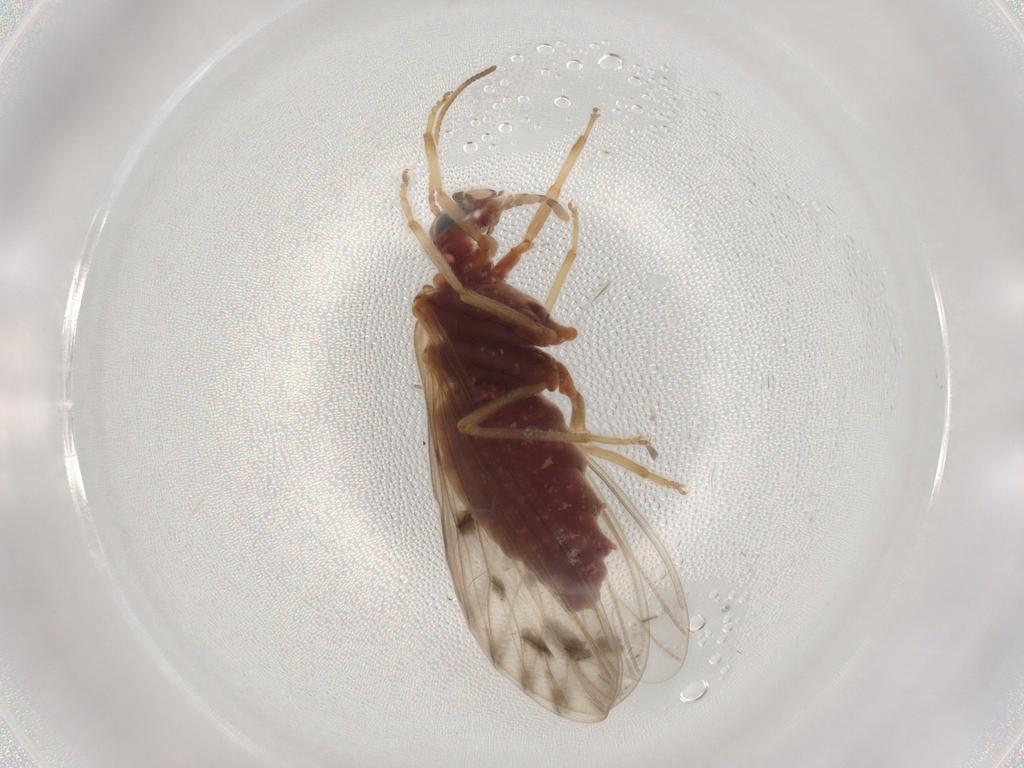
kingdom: Animalia
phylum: Arthropoda
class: Insecta
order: Neuroptera
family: Coniopterygidae
